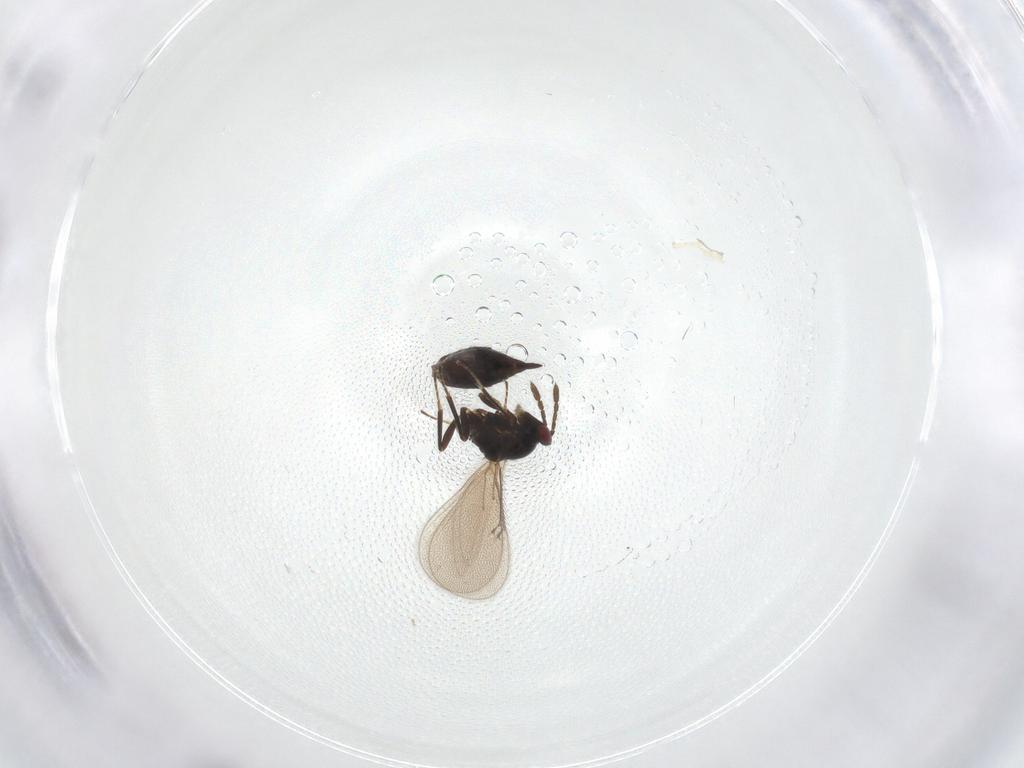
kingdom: Animalia
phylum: Arthropoda
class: Insecta
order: Hymenoptera
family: Eulophidae
